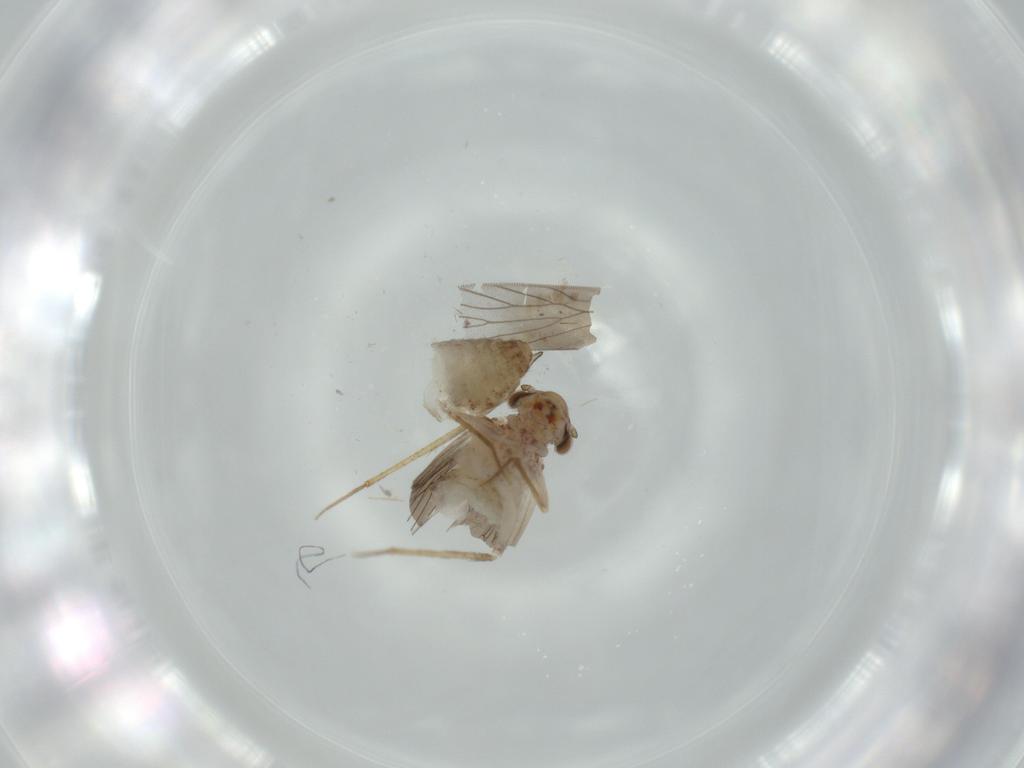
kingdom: Animalia
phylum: Arthropoda
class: Insecta
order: Psocodea
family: Lepidopsocidae
